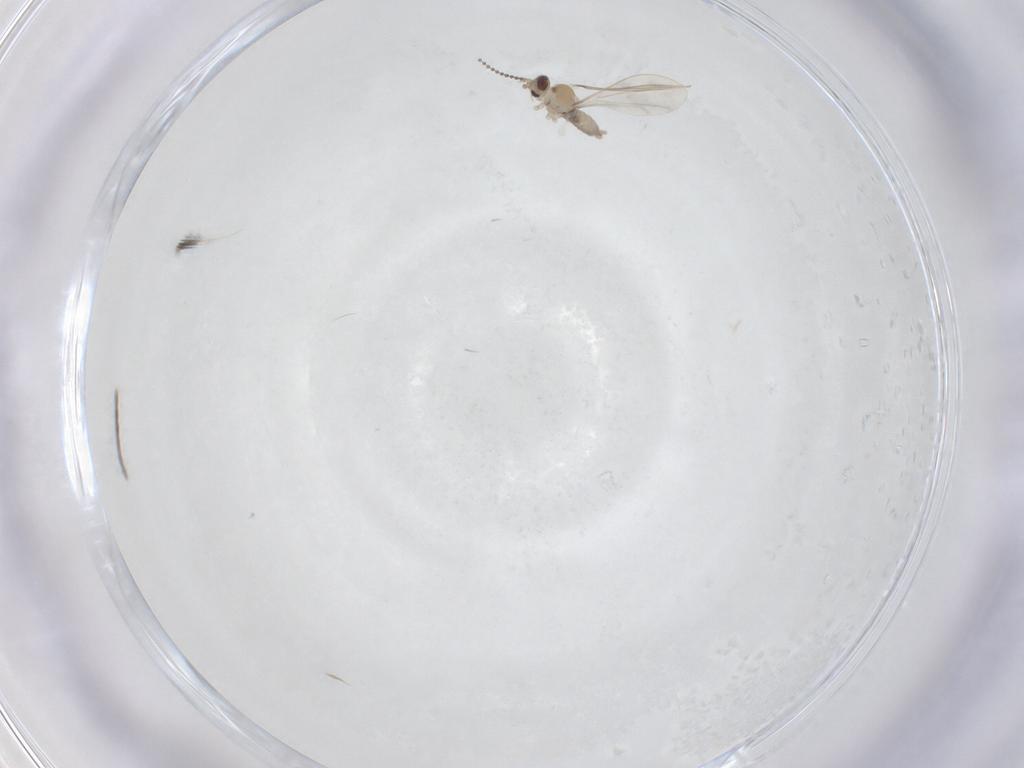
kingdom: Animalia
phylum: Arthropoda
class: Insecta
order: Diptera
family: Cecidomyiidae
